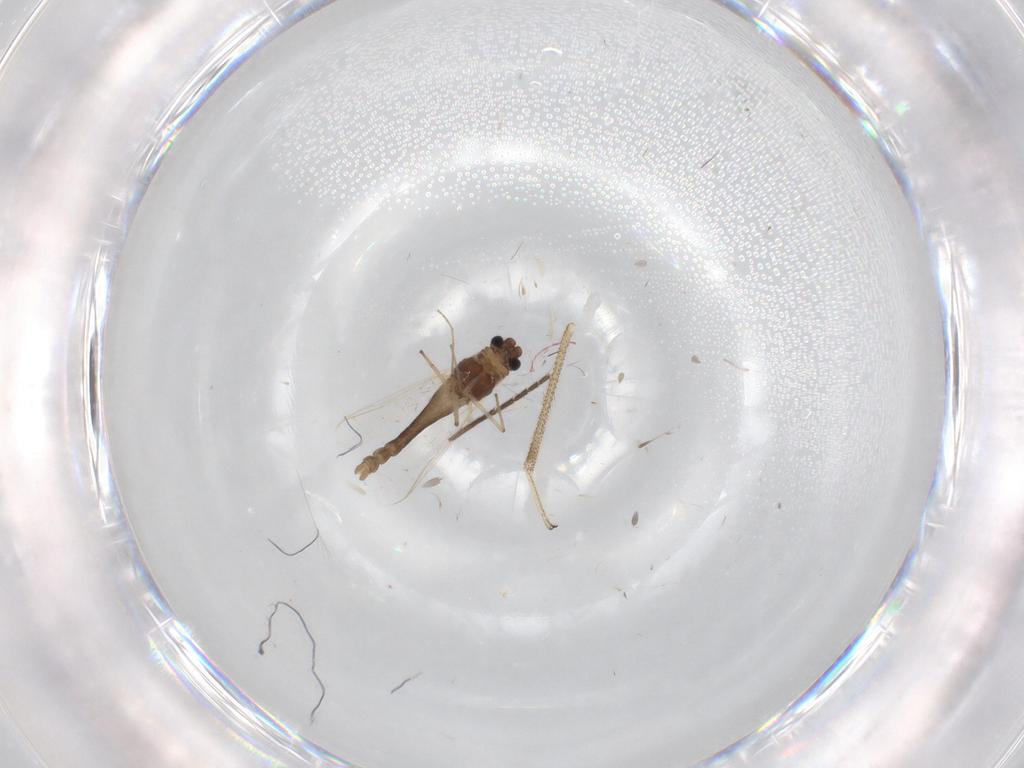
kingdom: Animalia
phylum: Arthropoda
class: Insecta
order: Diptera
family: Chironomidae
